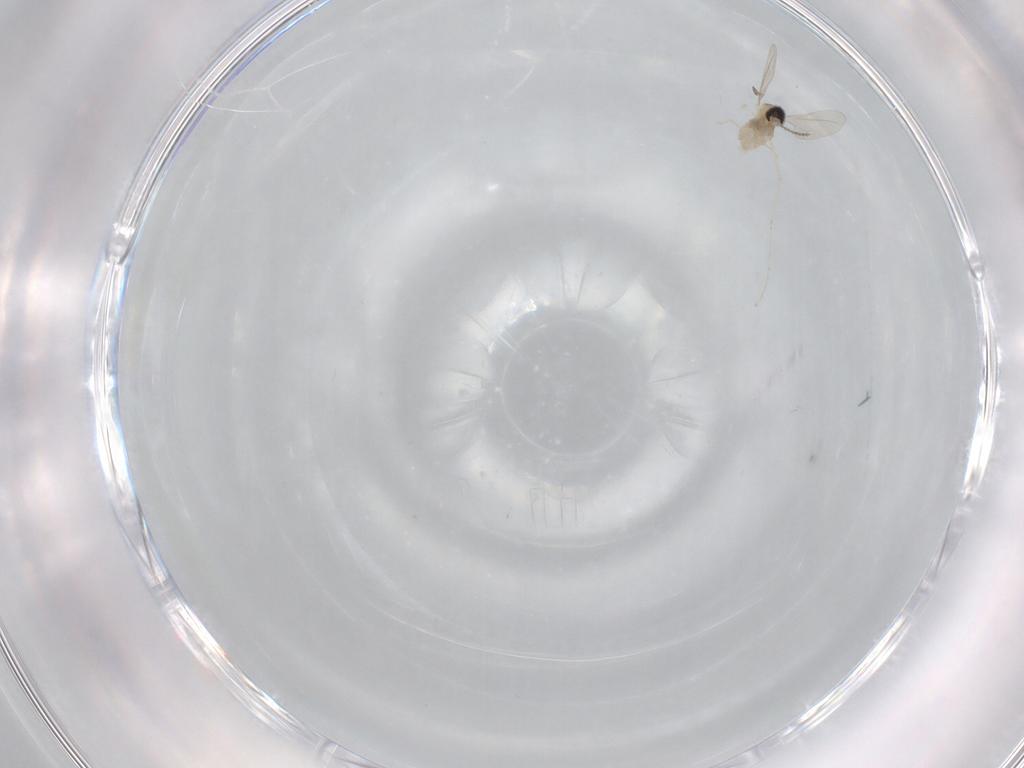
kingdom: Animalia
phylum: Arthropoda
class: Insecta
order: Diptera
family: Cecidomyiidae
